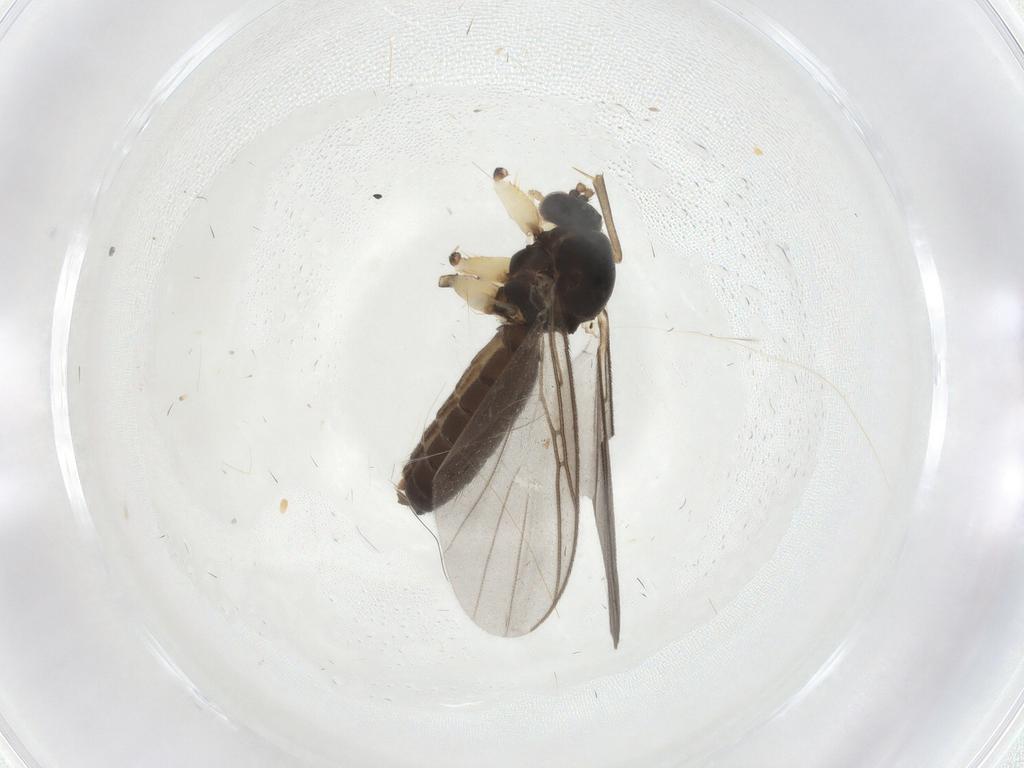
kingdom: Animalia
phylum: Arthropoda
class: Insecta
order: Diptera
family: Mycetophilidae
